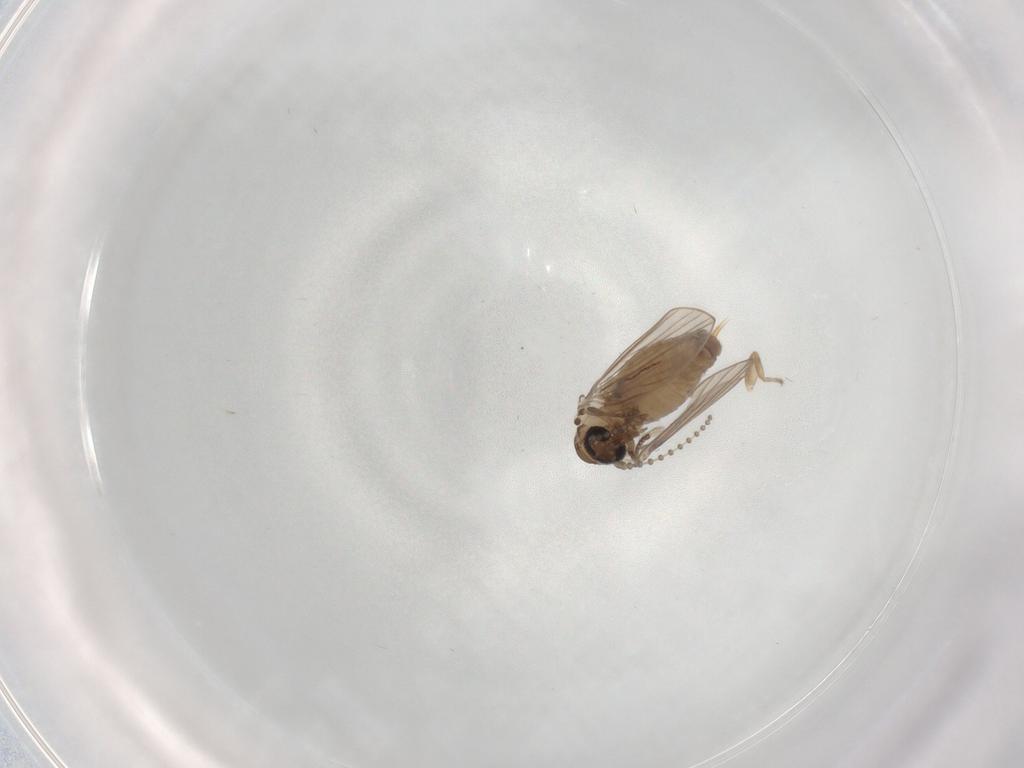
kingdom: Animalia
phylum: Arthropoda
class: Insecta
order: Diptera
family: Psychodidae
